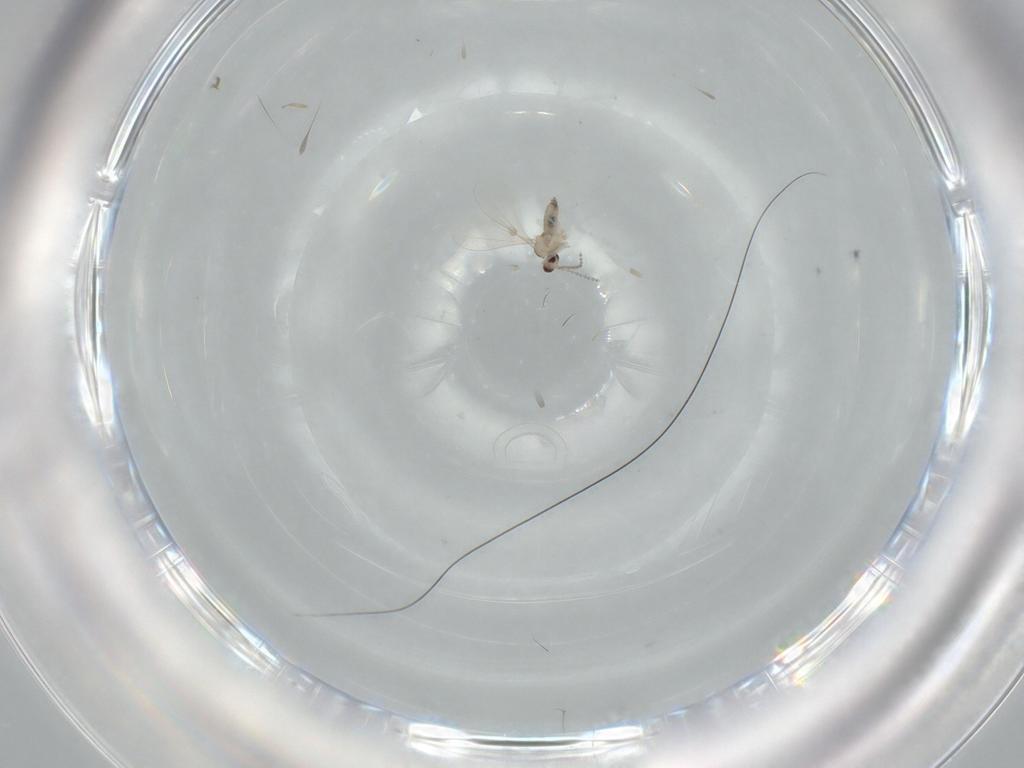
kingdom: Animalia
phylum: Arthropoda
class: Insecta
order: Diptera
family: Cecidomyiidae
